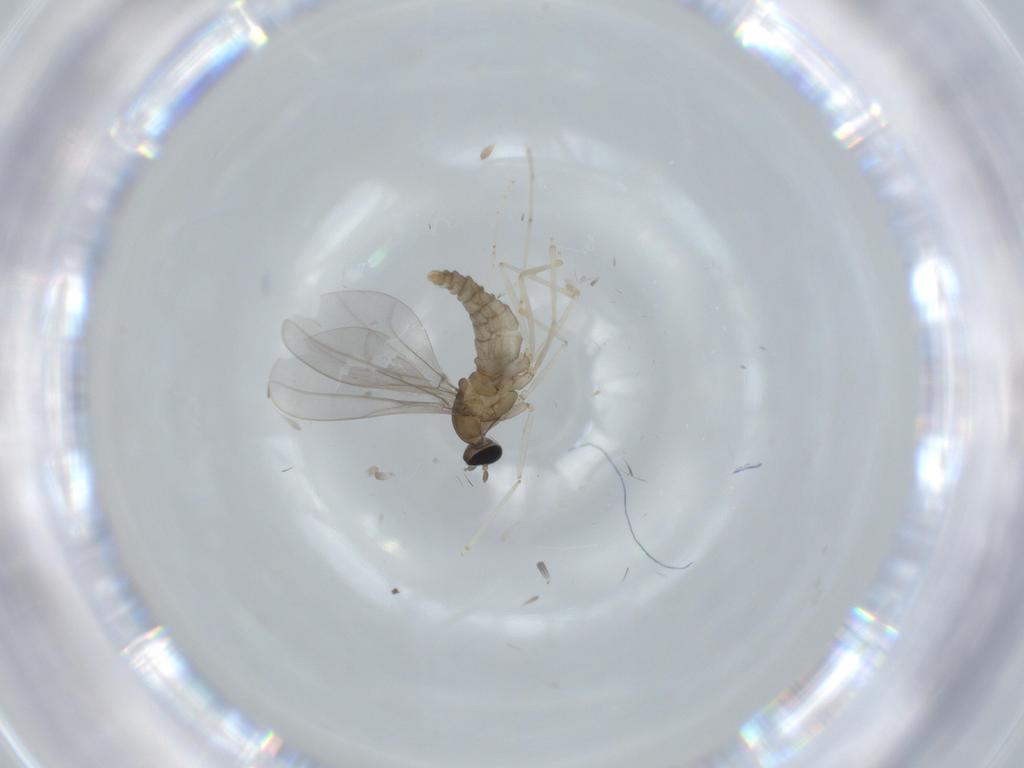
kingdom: Animalia
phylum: Arthropoda
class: Insecta
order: Diptera
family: Cecidomyiidae
